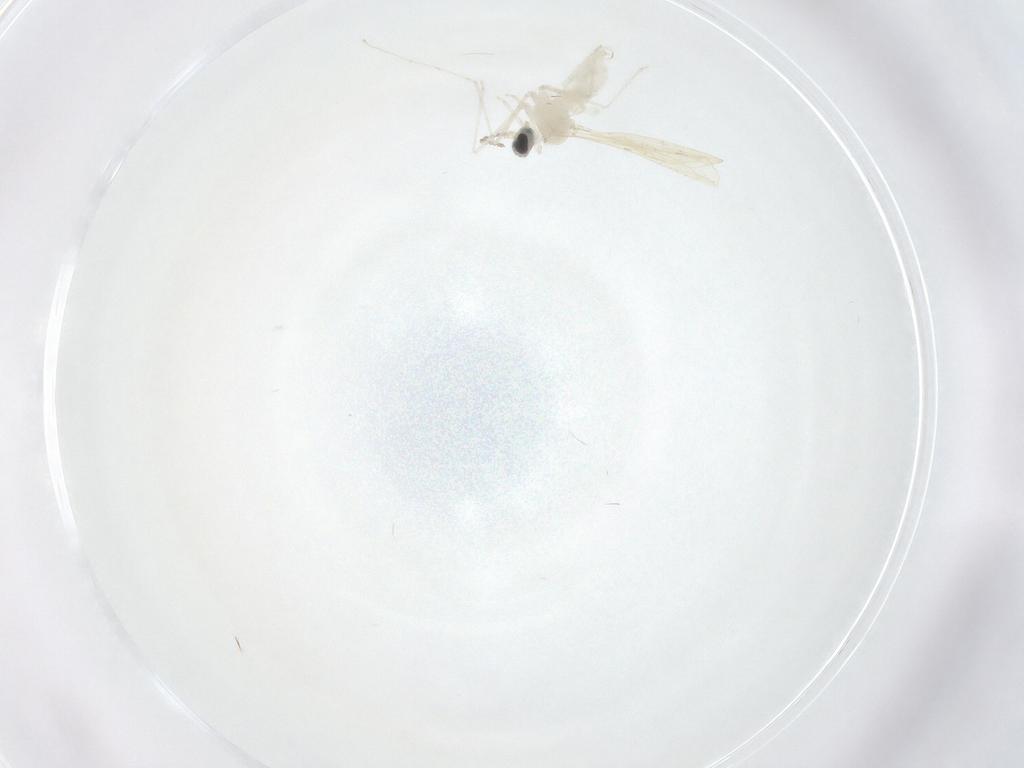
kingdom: Animalia
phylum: Arthropoda
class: Insecta
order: Diptera
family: Cecidomyiidae
